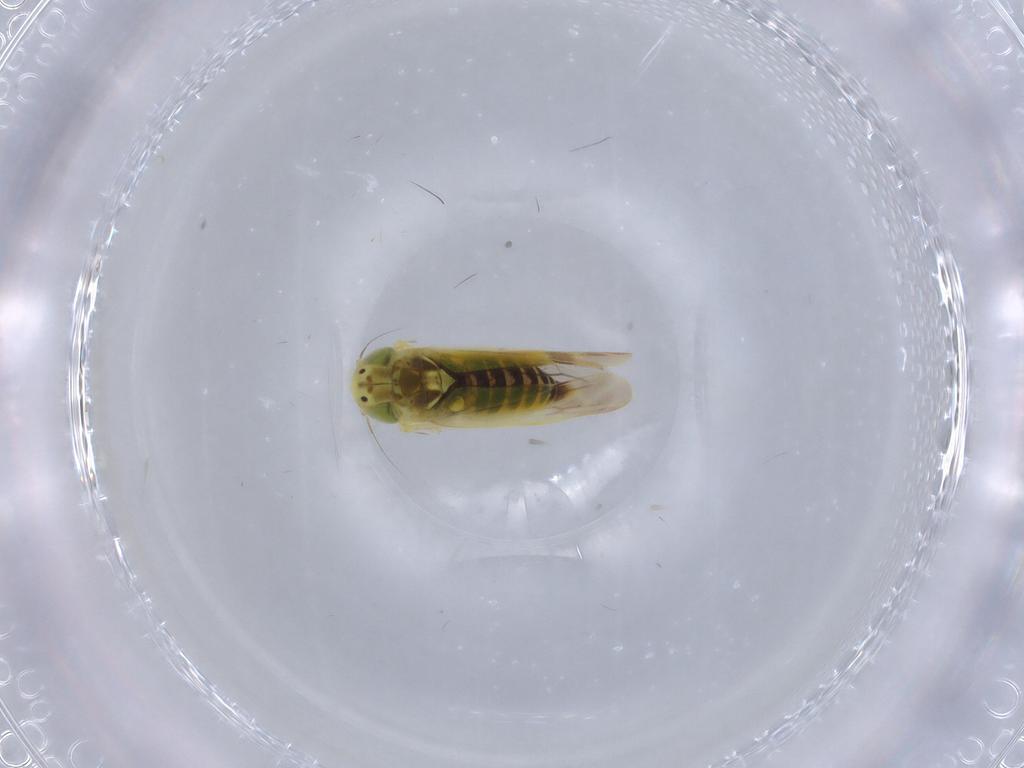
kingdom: Animalia
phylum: Arthropoda
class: Insecta
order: Hemiptera
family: Cicadellidae
